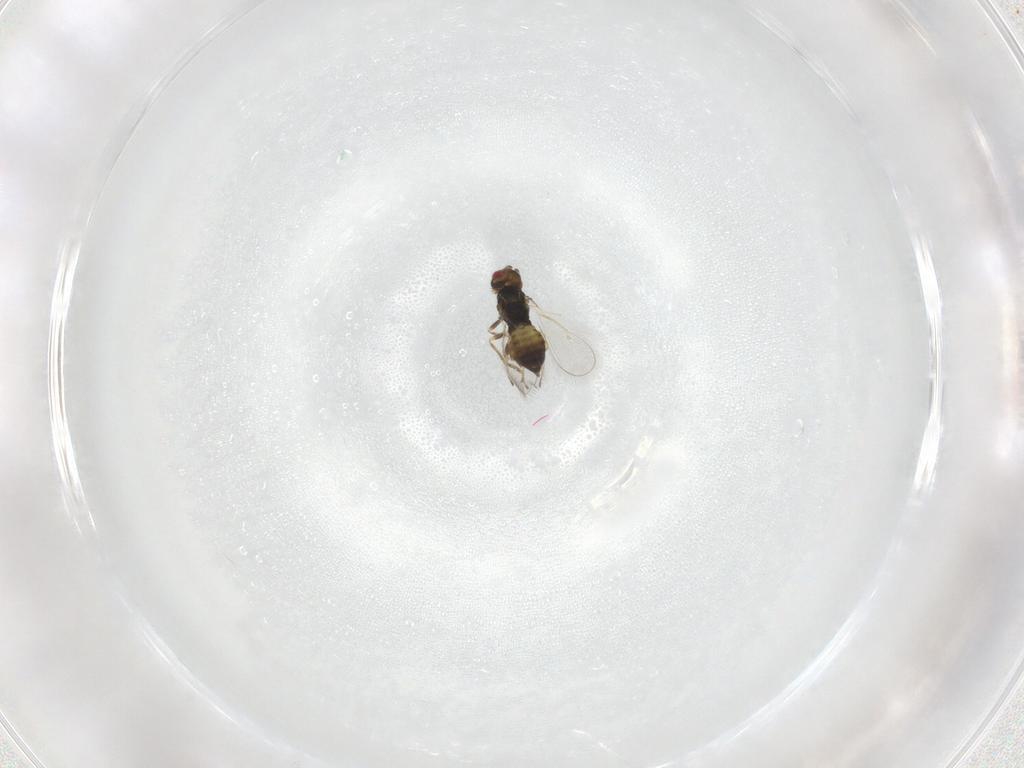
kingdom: Animalia
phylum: Arthropoda
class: Insecta
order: Hymenoptera
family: Eulophidae
